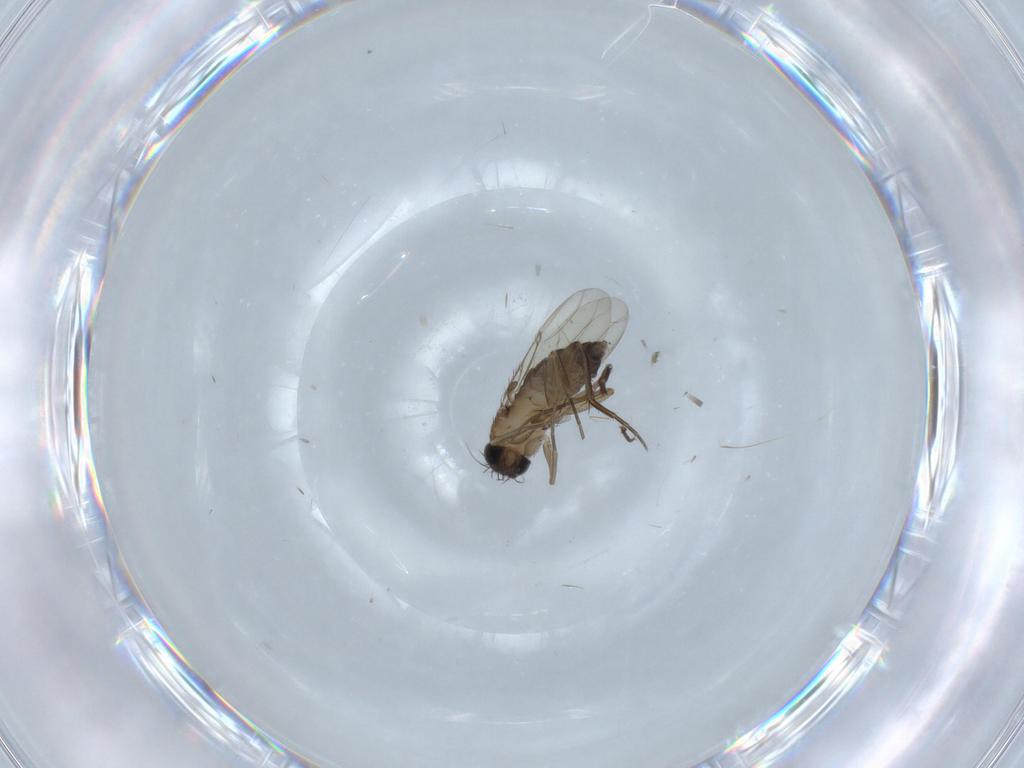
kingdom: Animalia
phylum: Arthropoda
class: Insecta
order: Diptera
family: Phoridae
